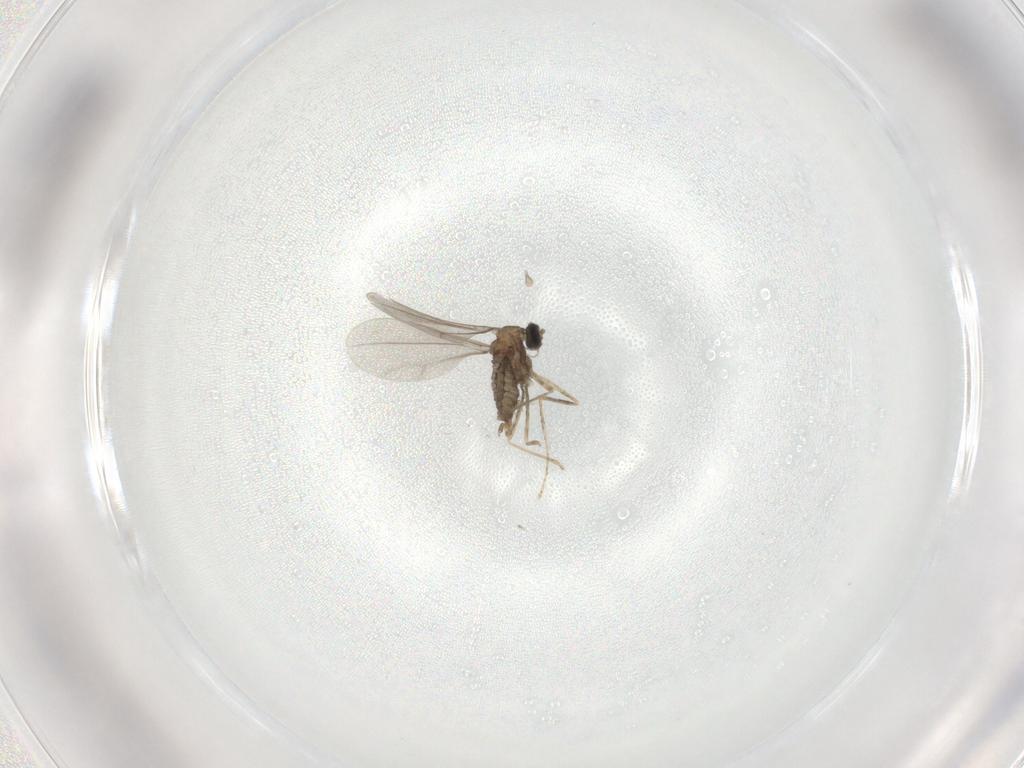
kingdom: Animalia
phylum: Arthropoda
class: Insecta
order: Diptera
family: Cecidomyiidae
